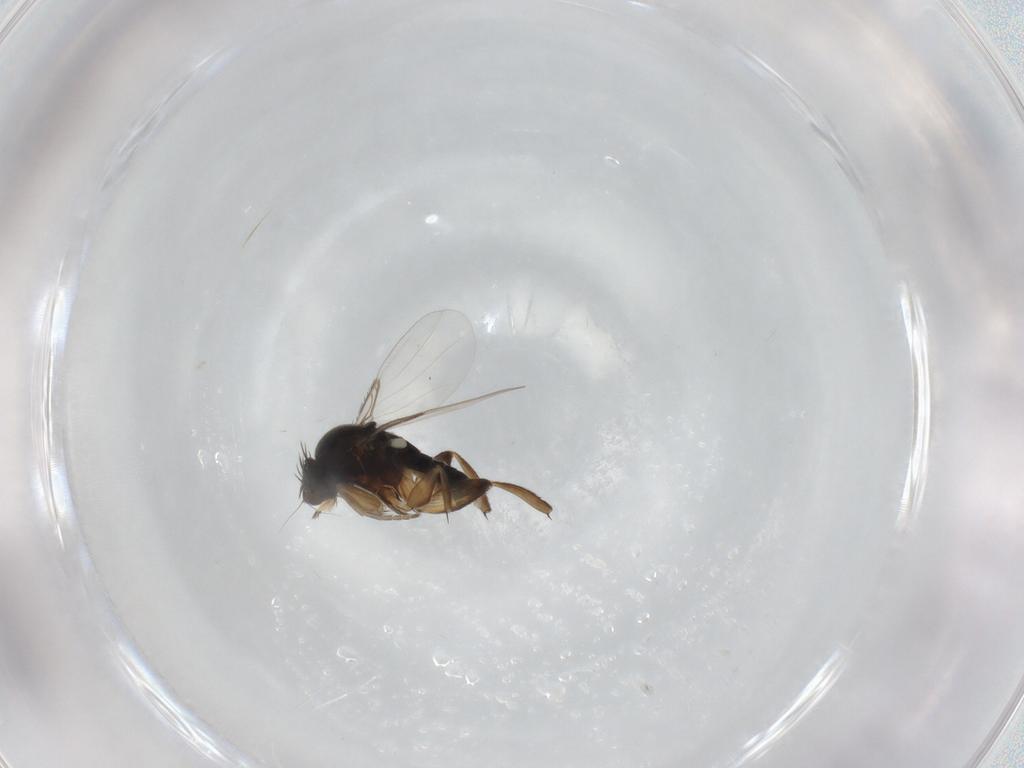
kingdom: Animalia
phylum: Arthropoda
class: Insecta
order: Diptera
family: Phoridae
